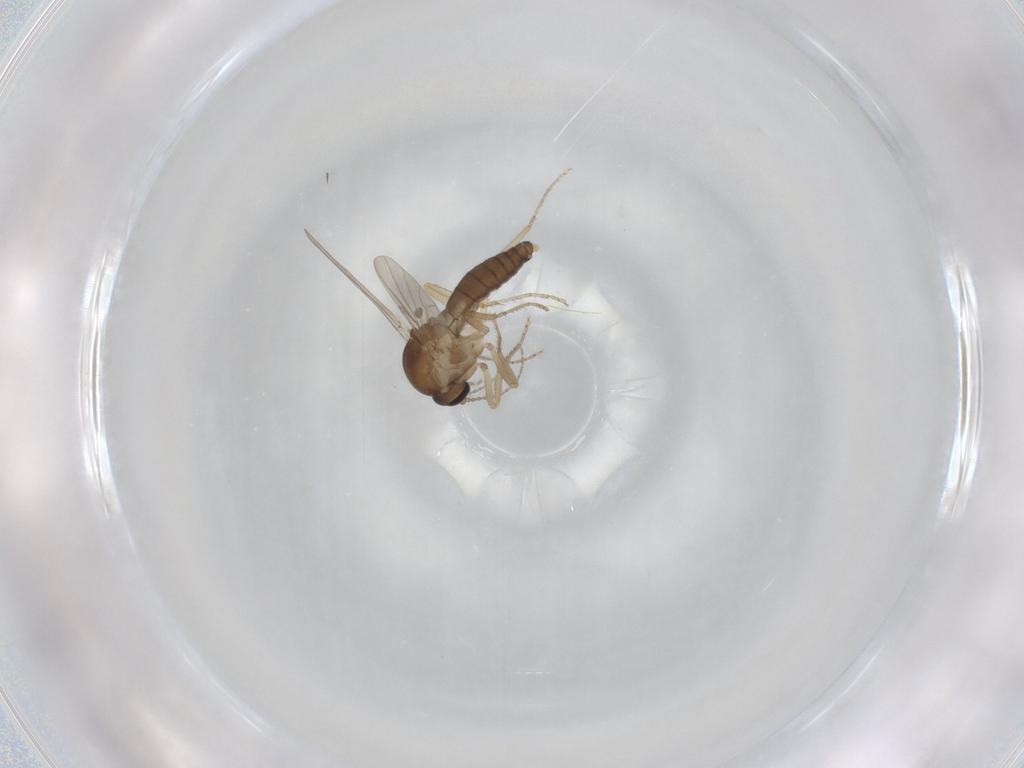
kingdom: Animalia
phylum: Arthropoda
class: Insecta
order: Diptera
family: Ceratopogonidae
